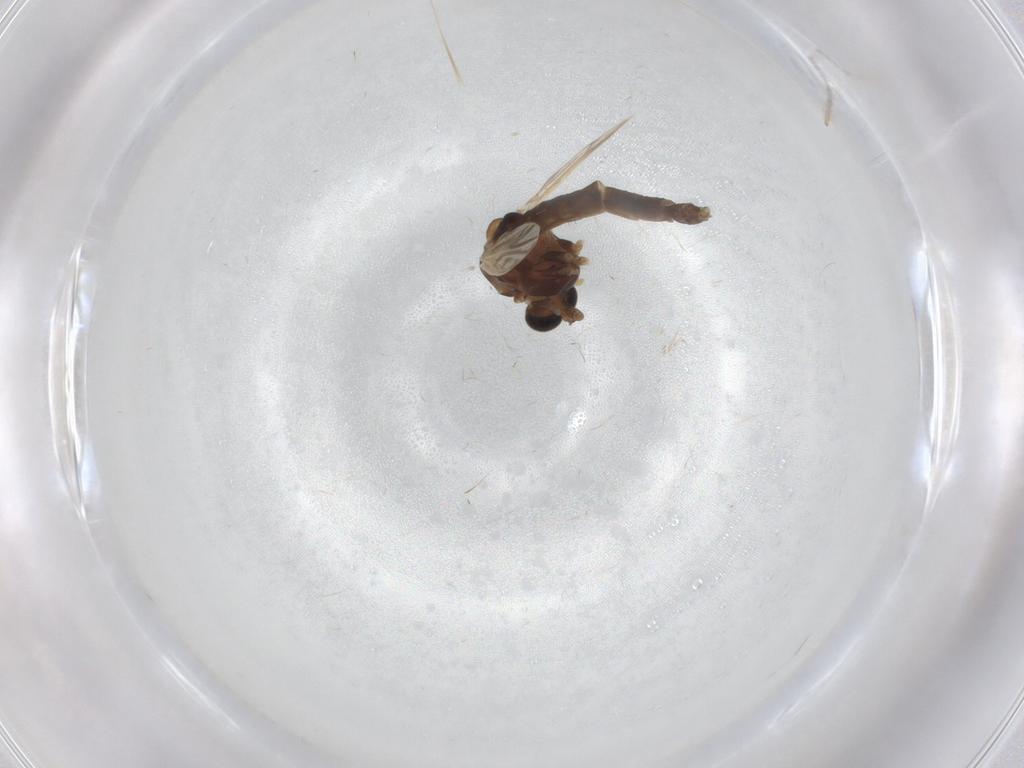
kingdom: Animalia
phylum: Arthropoda
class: Insecta
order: Diptera
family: Chironomidae
